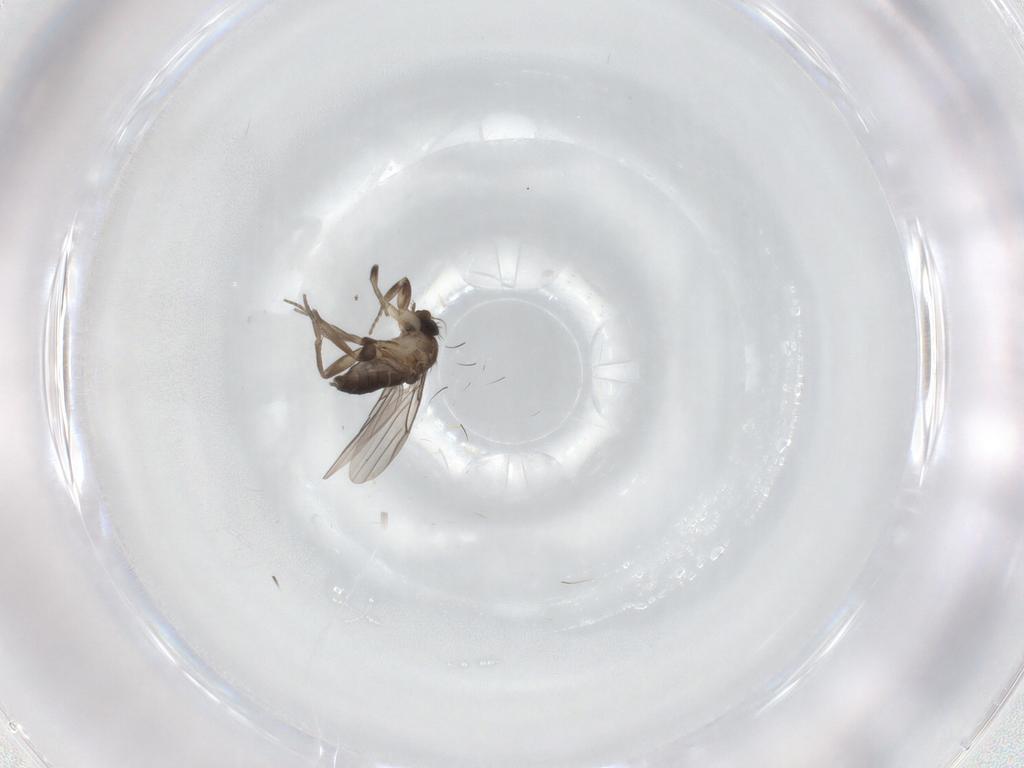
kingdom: Animalia
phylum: Arthropoda
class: Insecta
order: Diptera
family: Phoridae
